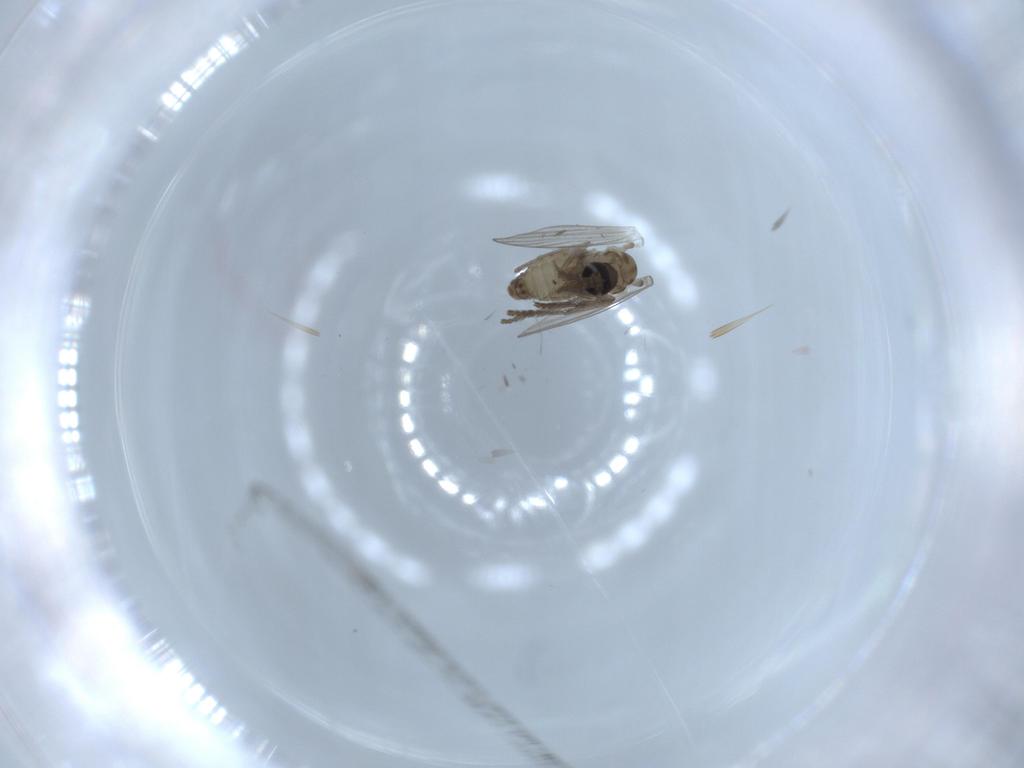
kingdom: Animalia
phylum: Arthropoda
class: Insecta
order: Diptera
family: Psychodidae
